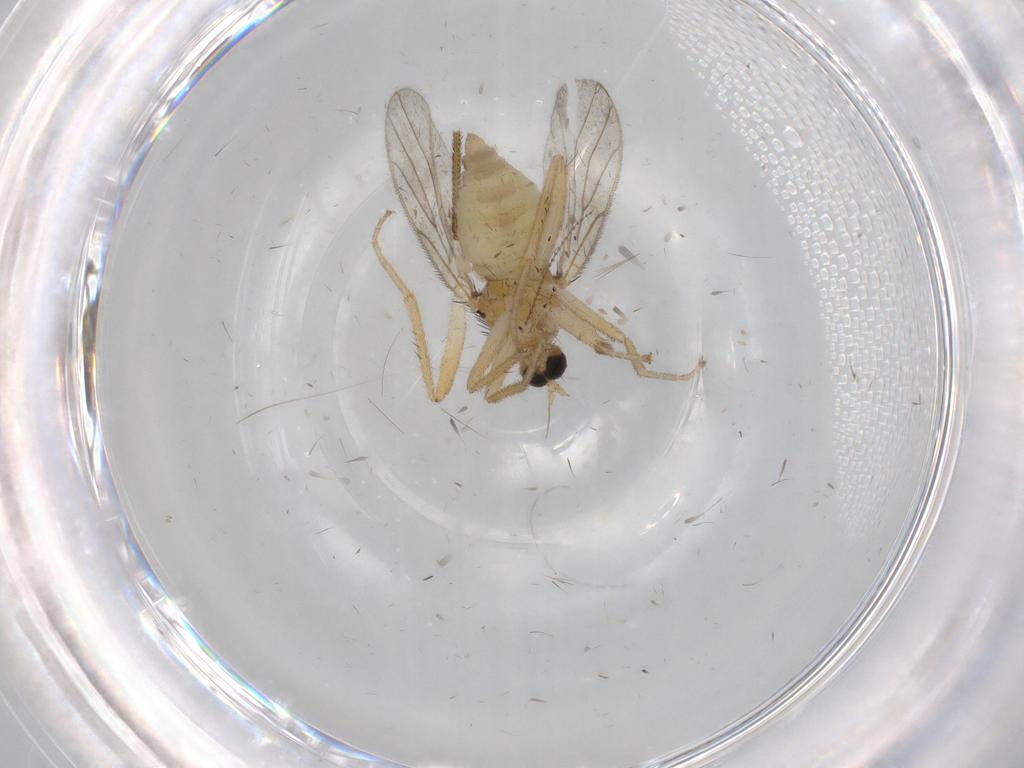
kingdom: Animalia
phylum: Arthropoda
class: Insecta
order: Diptera
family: Hybotidae
